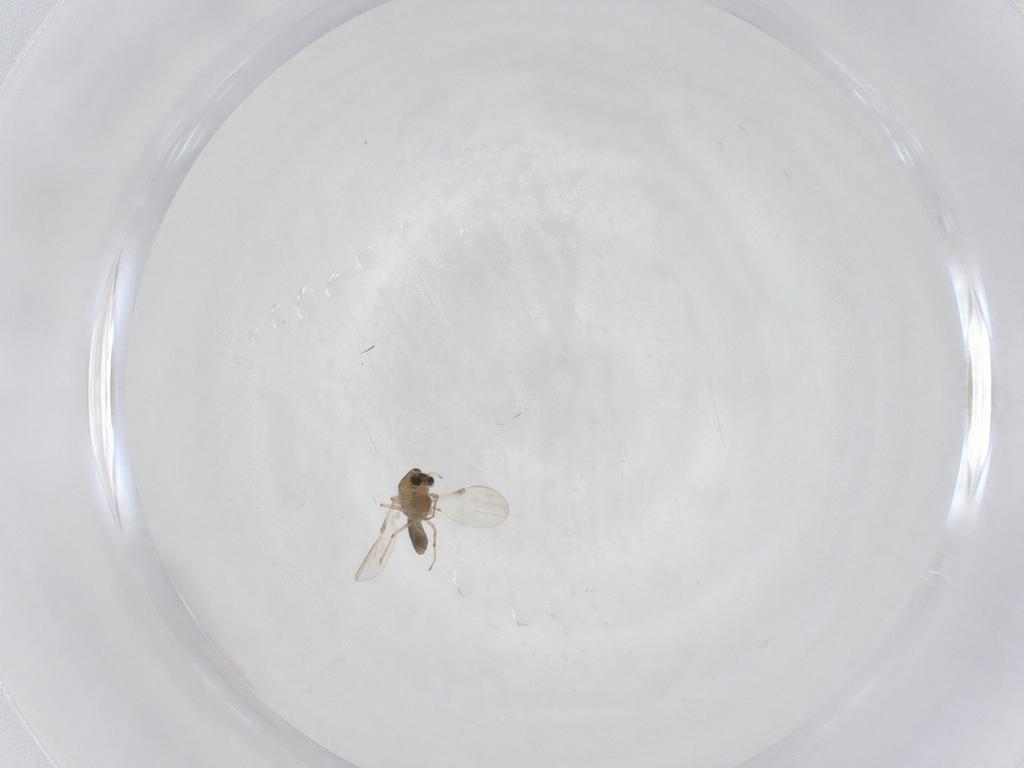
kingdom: Animalia
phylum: Arthropoda
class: Insecta
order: Diptera
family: Chironomidae
